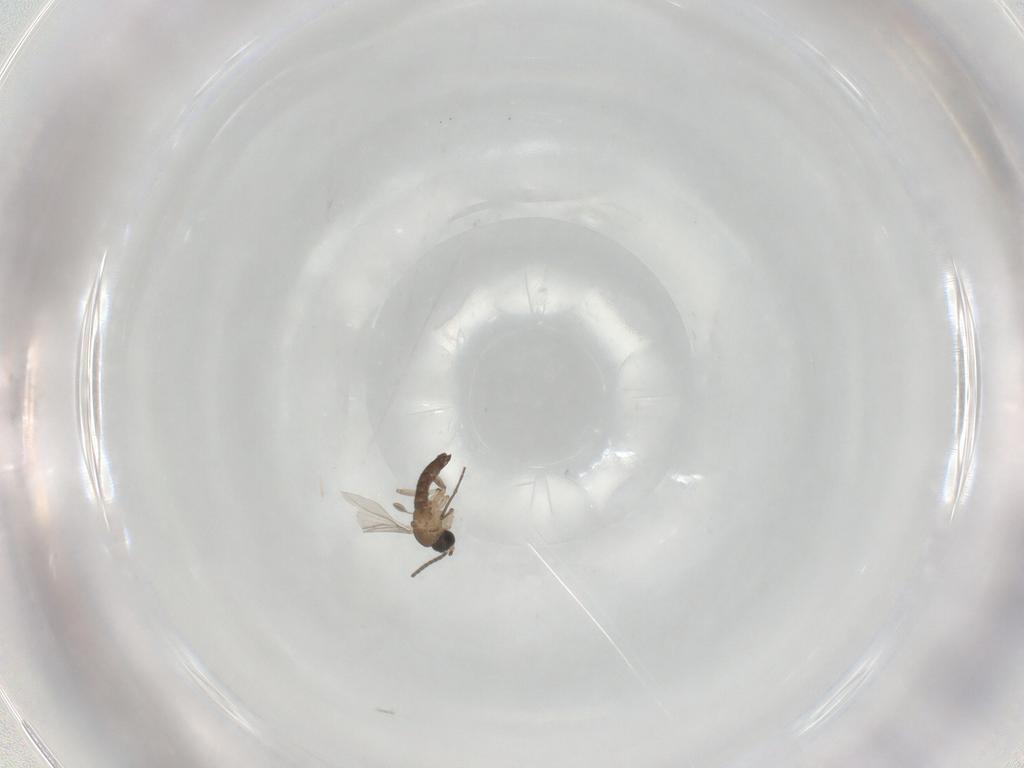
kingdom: Animalia
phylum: Arthropoda
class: Insecta
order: Diptera
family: Sciaridae
